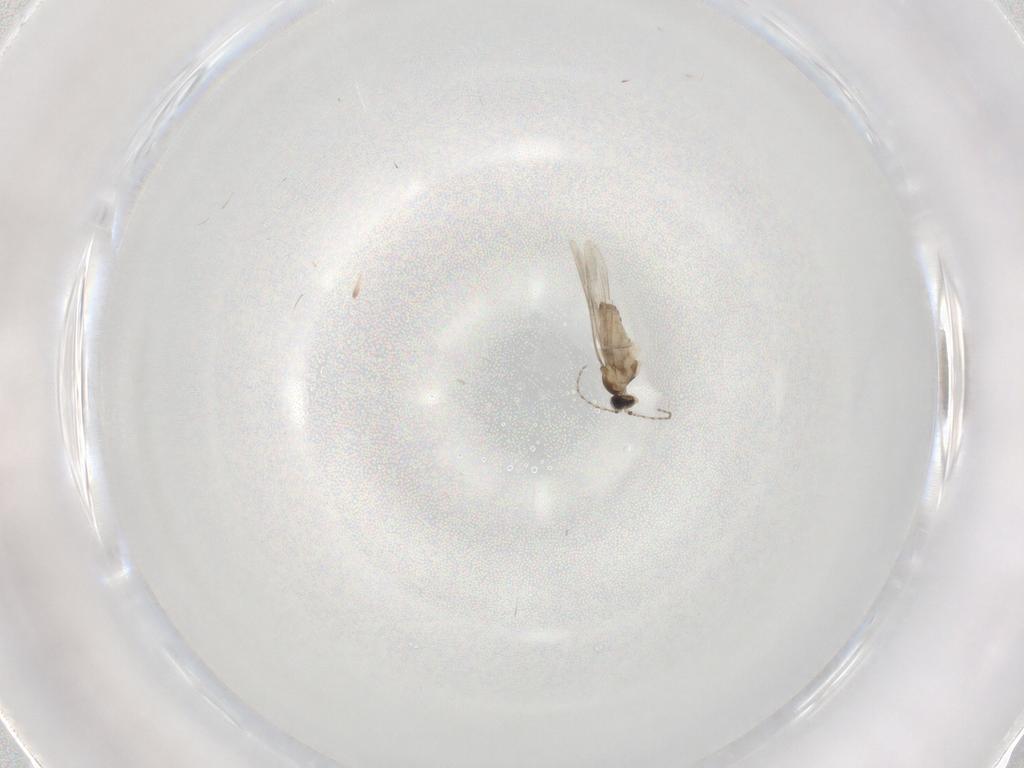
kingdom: Animalia
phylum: Arthropoda
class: Insecta
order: Diptera
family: Cecidomyiidae
